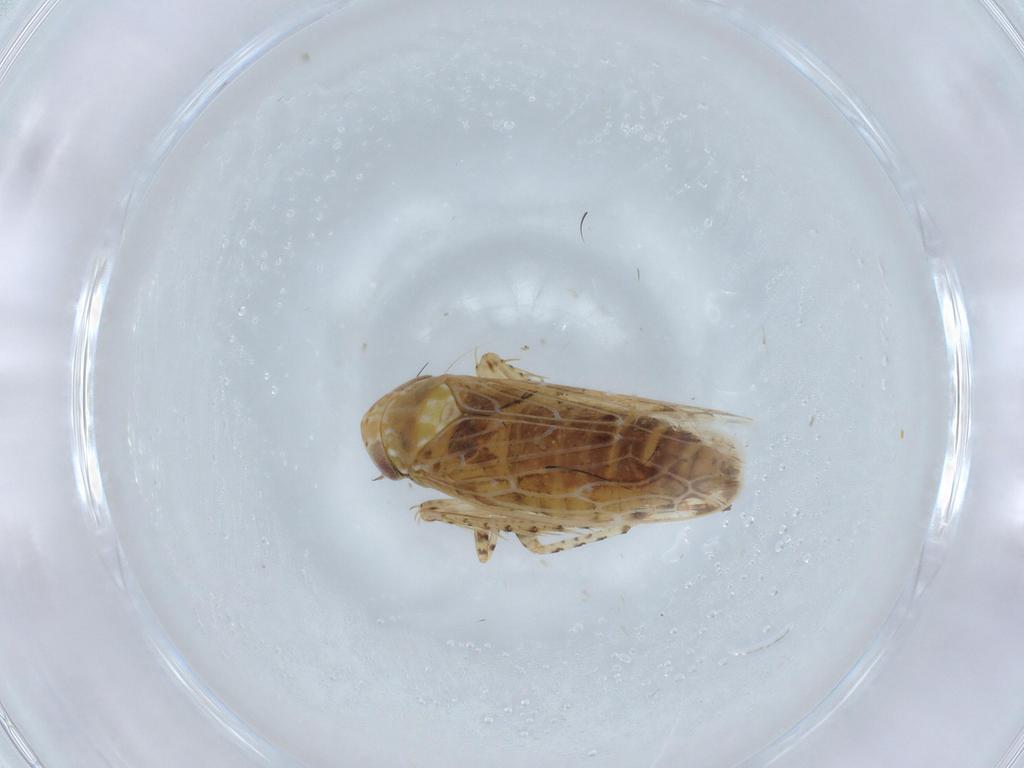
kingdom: Animalia
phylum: Arthropoda
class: Insecta
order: Hemiptera
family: Cicadellidae
